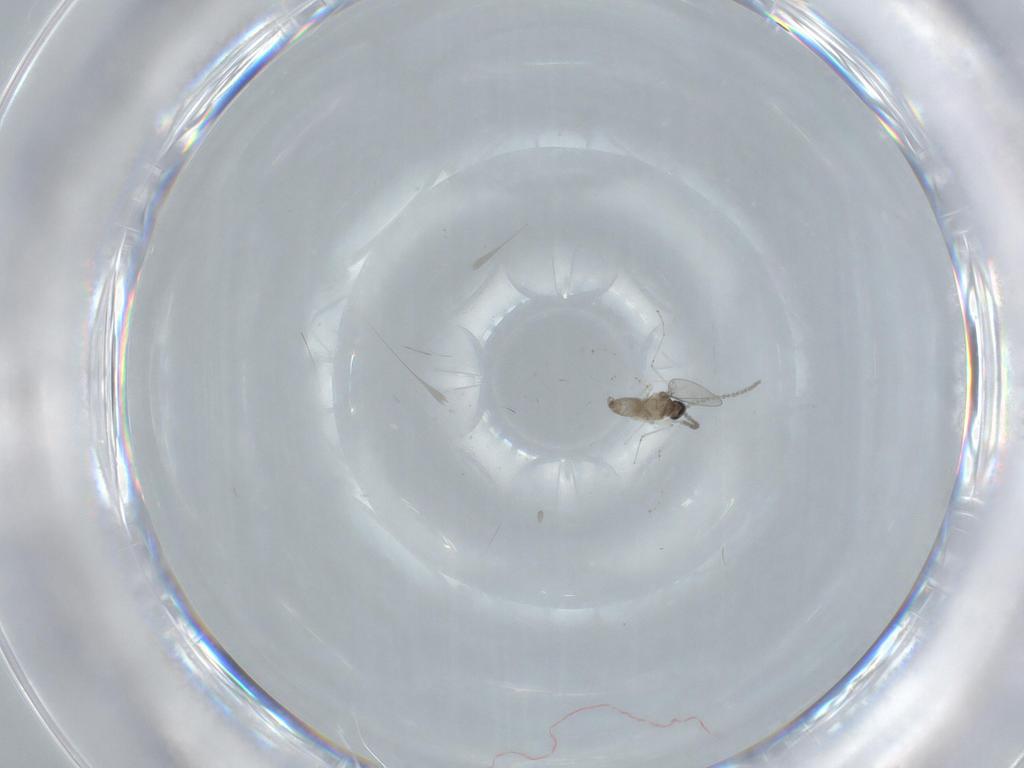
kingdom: Animalia
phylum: Arthropoda
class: Insecta
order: Diptera
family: Cecidomyiidae
